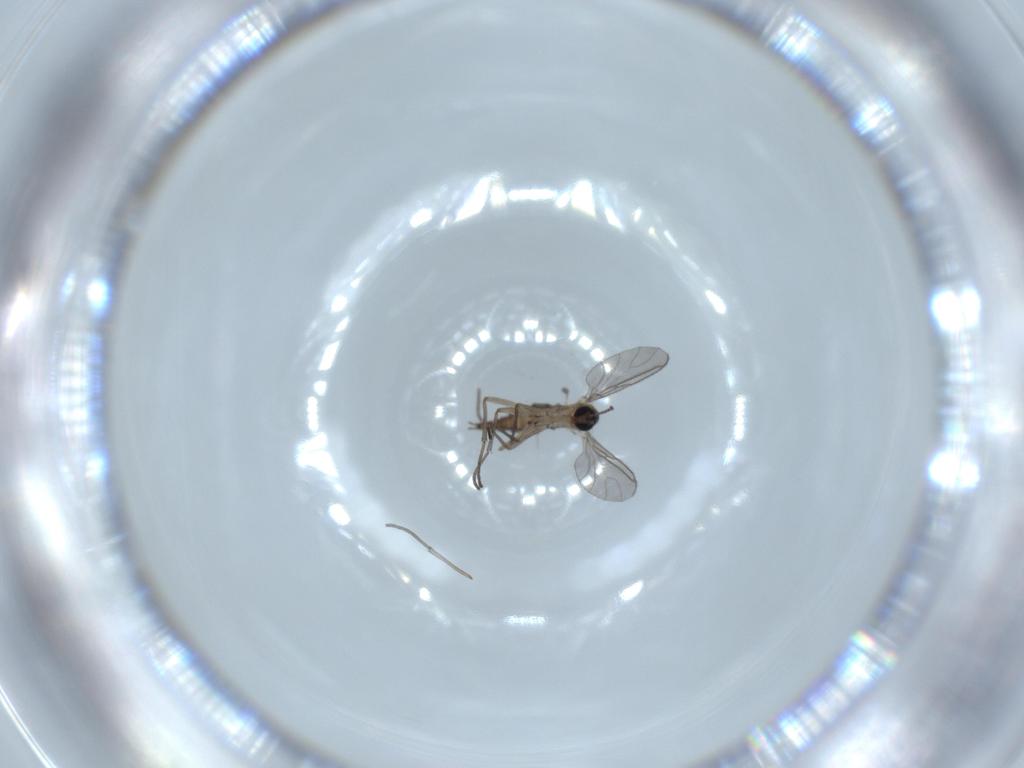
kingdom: Animalia
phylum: Arthropoda
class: Insecta
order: Diptera
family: Sciaridae
